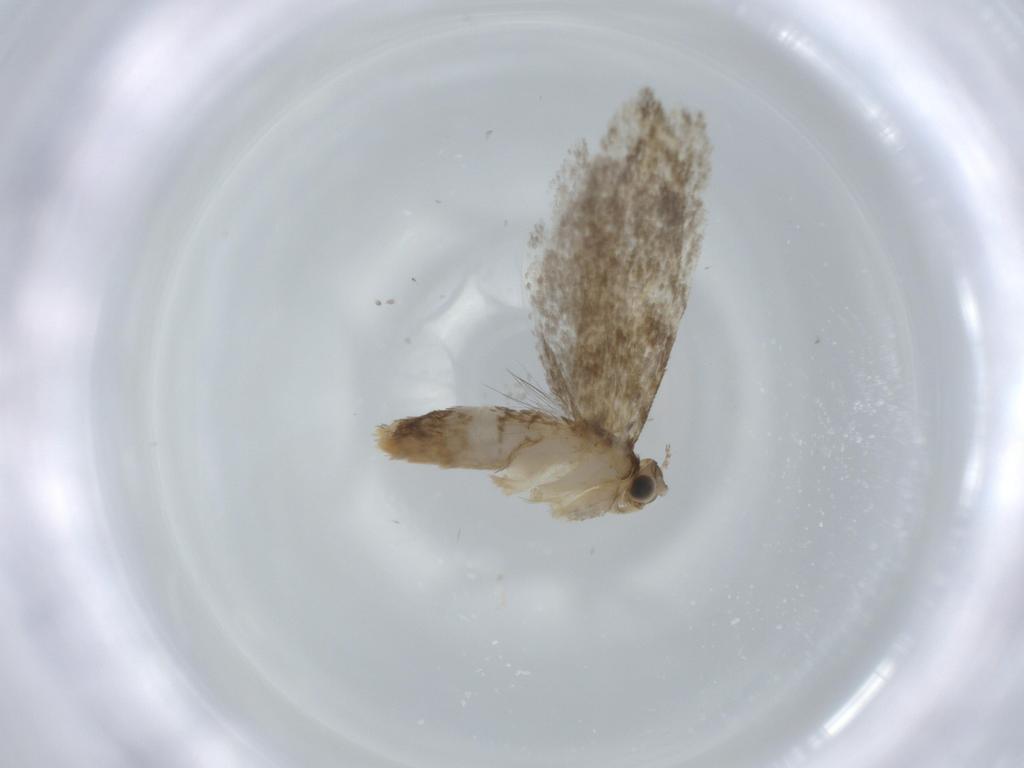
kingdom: Animalia
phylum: Arthropoda
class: Insecta
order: Lepidoptera
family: Tineidae
